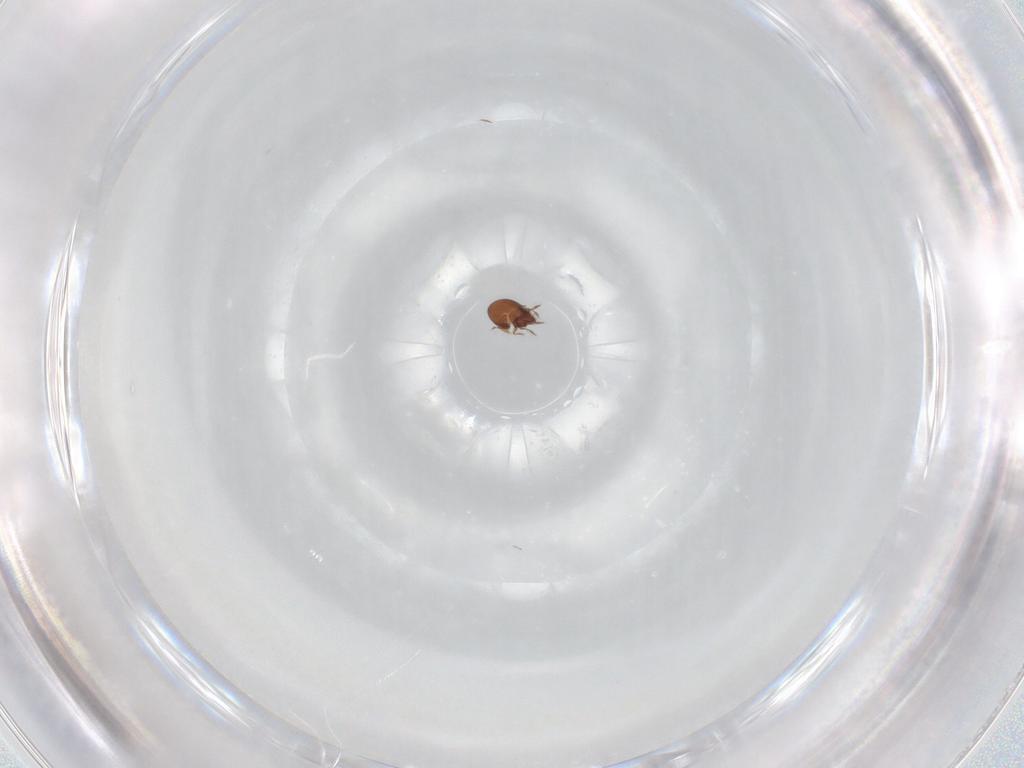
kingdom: Animalia
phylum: Arthropoda
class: Arachnida
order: Sarcoptiformes
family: Ceratozetidae
